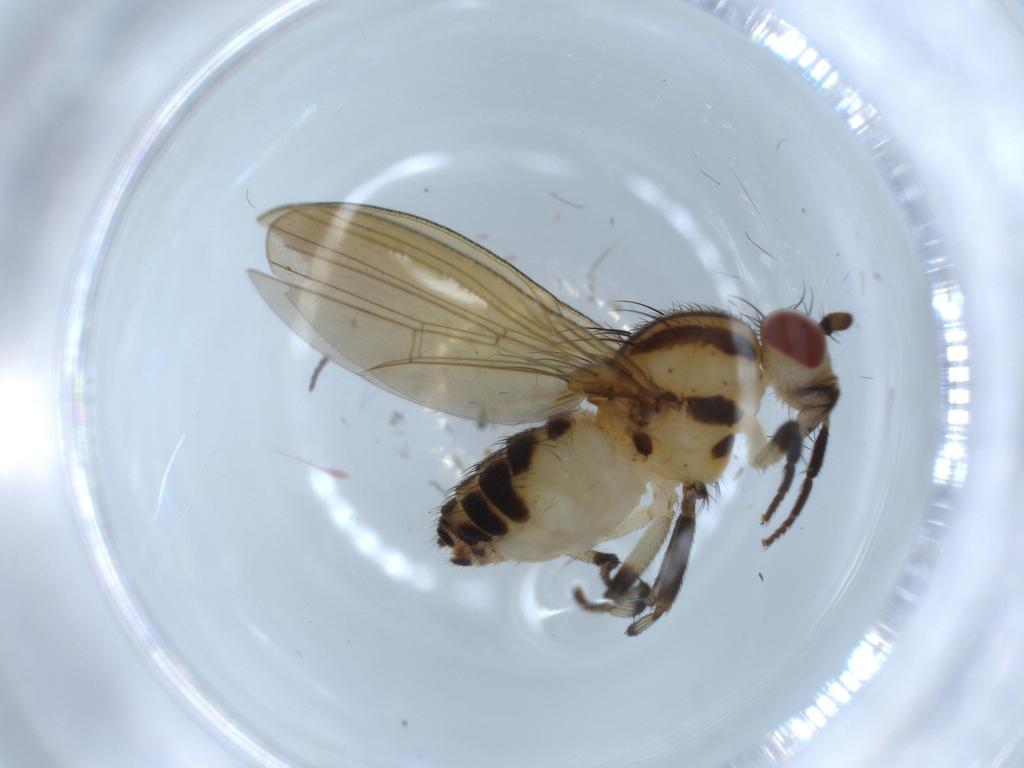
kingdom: Animalia
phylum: Arthropoda
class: Insecta
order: Diptera
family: Lauxaniidae
